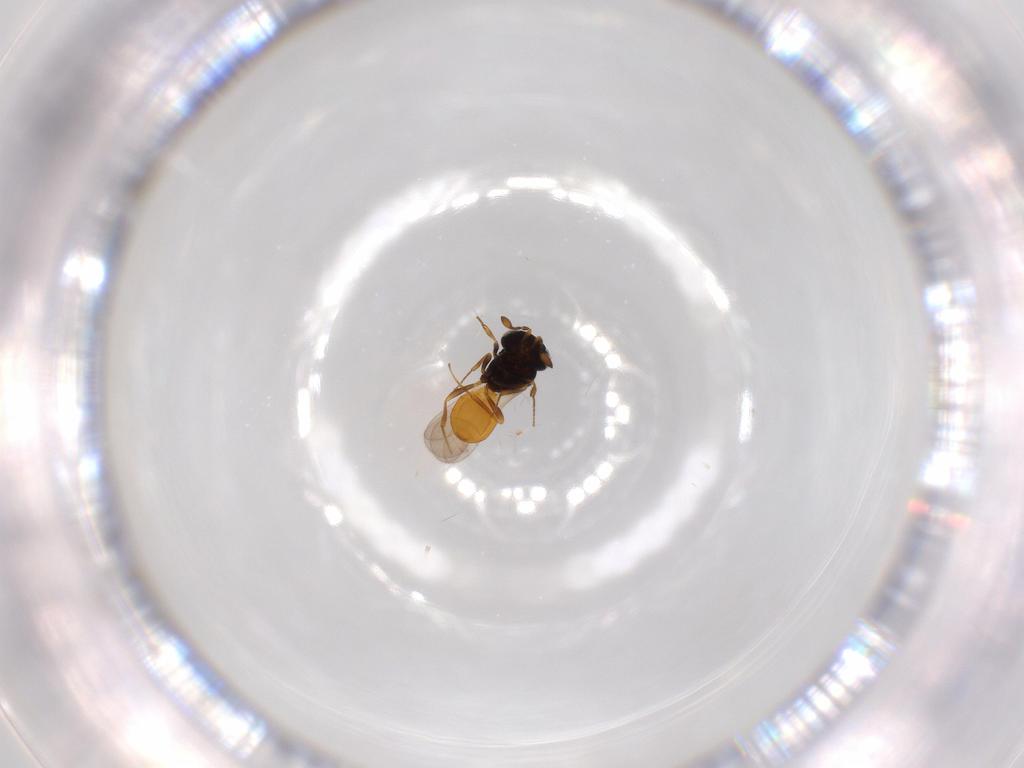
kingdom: Animalia
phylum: Arthropoda
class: Insecta
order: Hymenoptera
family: Scelionidae
